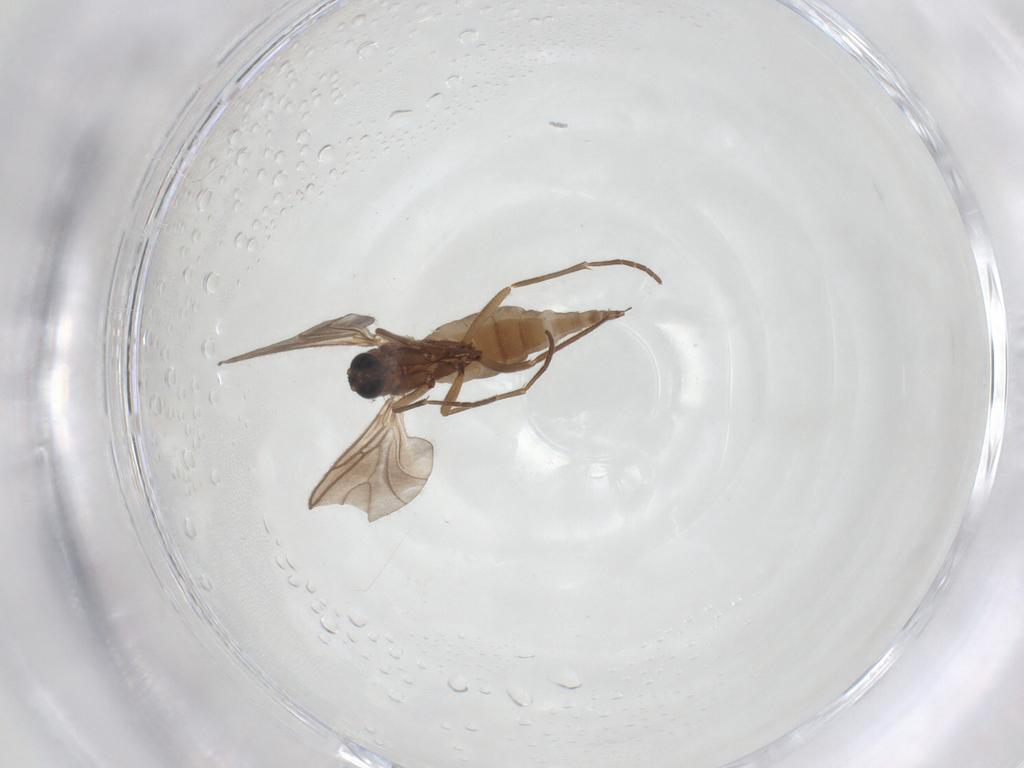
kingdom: Animalia
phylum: Arthropoda
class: Insecta
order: Diptera
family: Sciaridae
